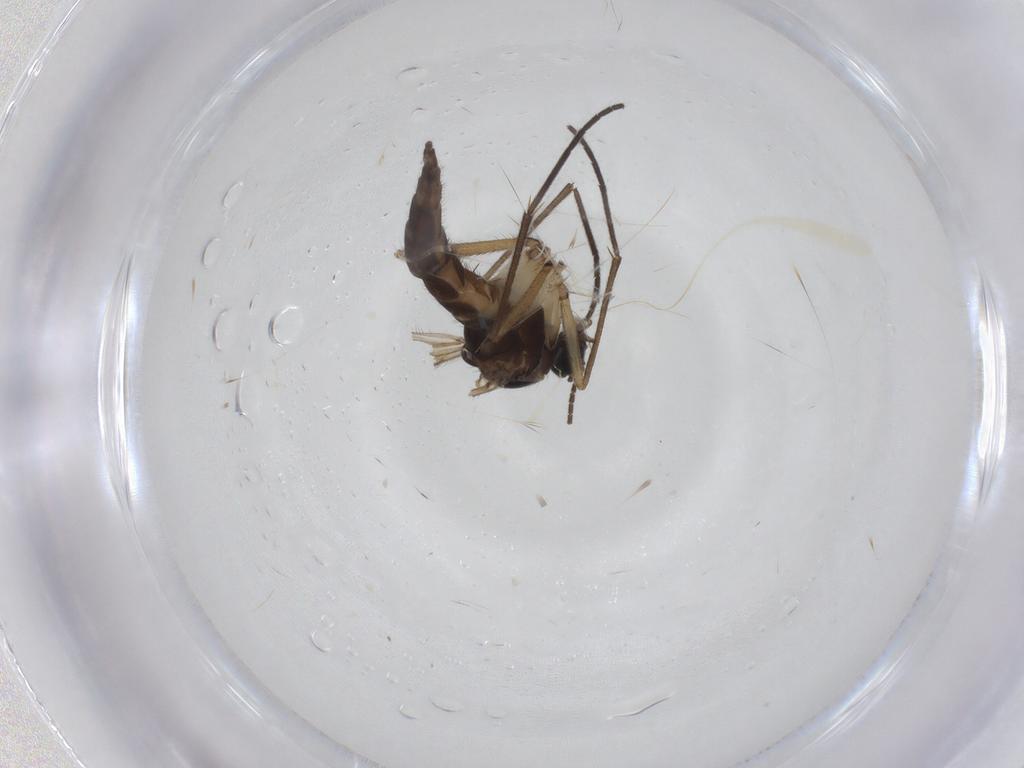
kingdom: Animalia
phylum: Arthropoda
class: Insecta
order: Diptera
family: Sciaridae
